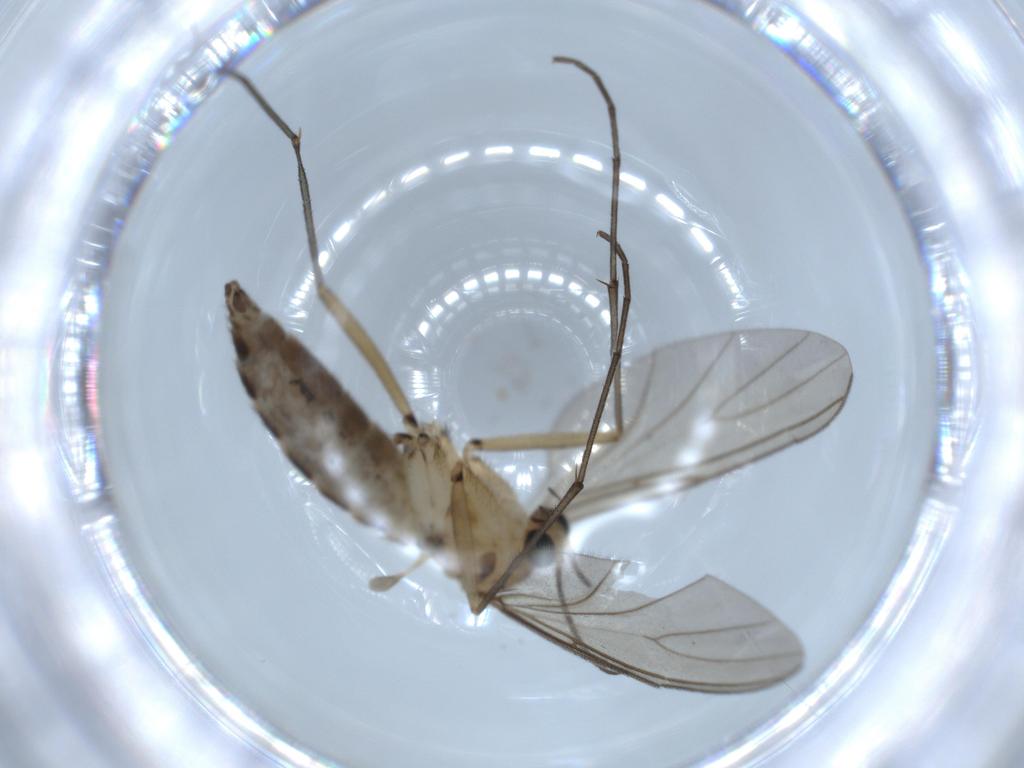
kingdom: Animalia
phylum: Arthropoda
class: Insecta
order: Diptera
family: Sciaridae
